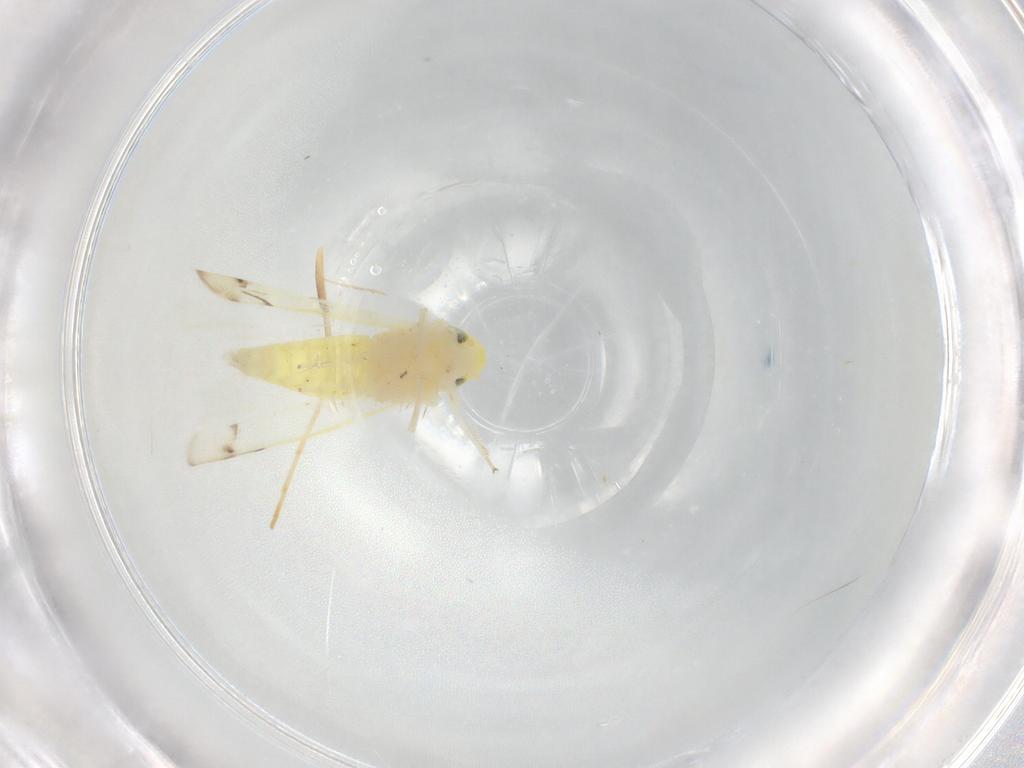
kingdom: Animalia
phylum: Arthropoda
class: Insecta
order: Hemiptera
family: Cicadellidae
